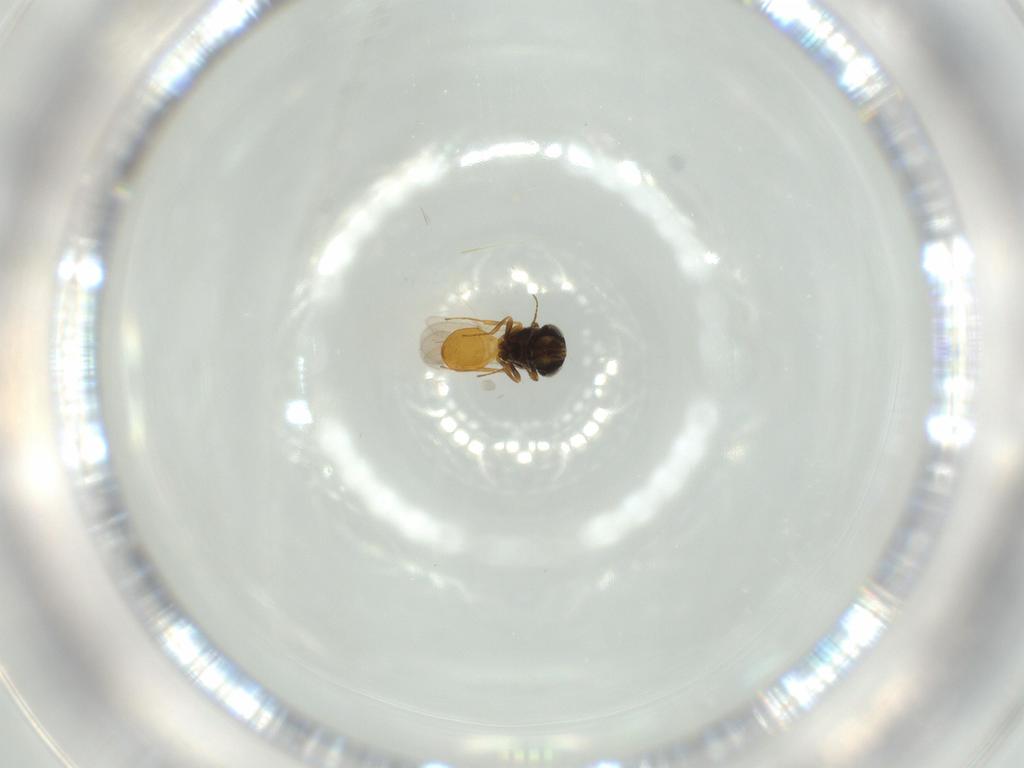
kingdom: Animalia
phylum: Arthropoda
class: Insecta
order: Hymenoptera
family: Scelionidae
